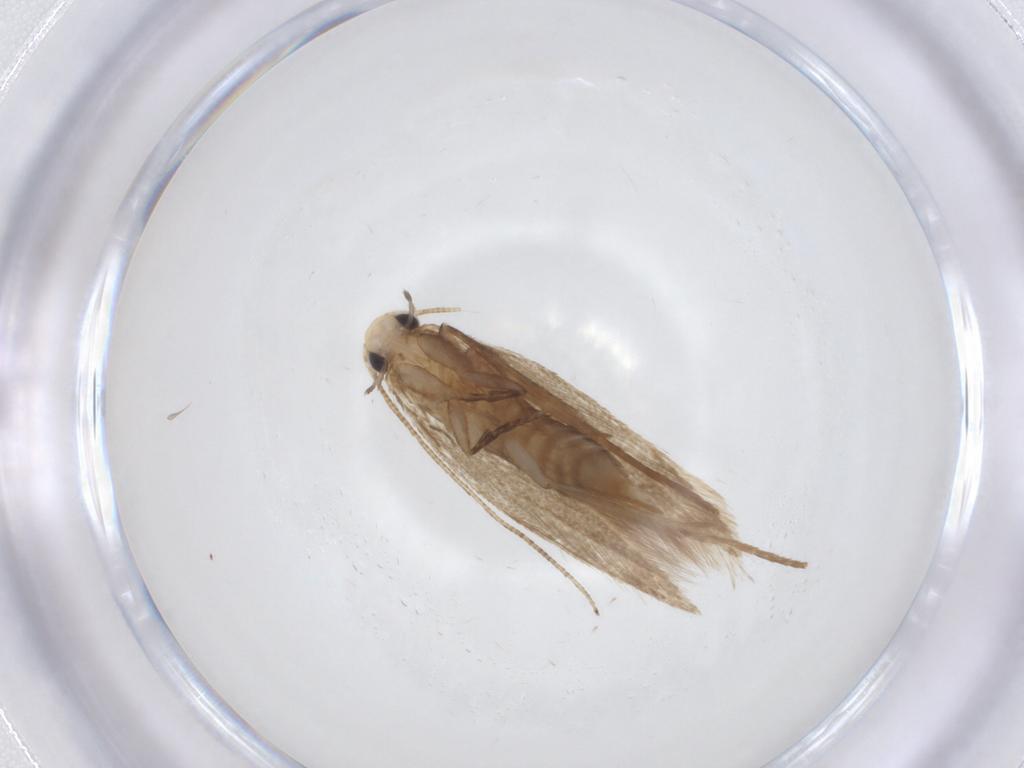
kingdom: Animalia
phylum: Arthropoda
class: Insecta
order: Lepidoptera
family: Tineidae
